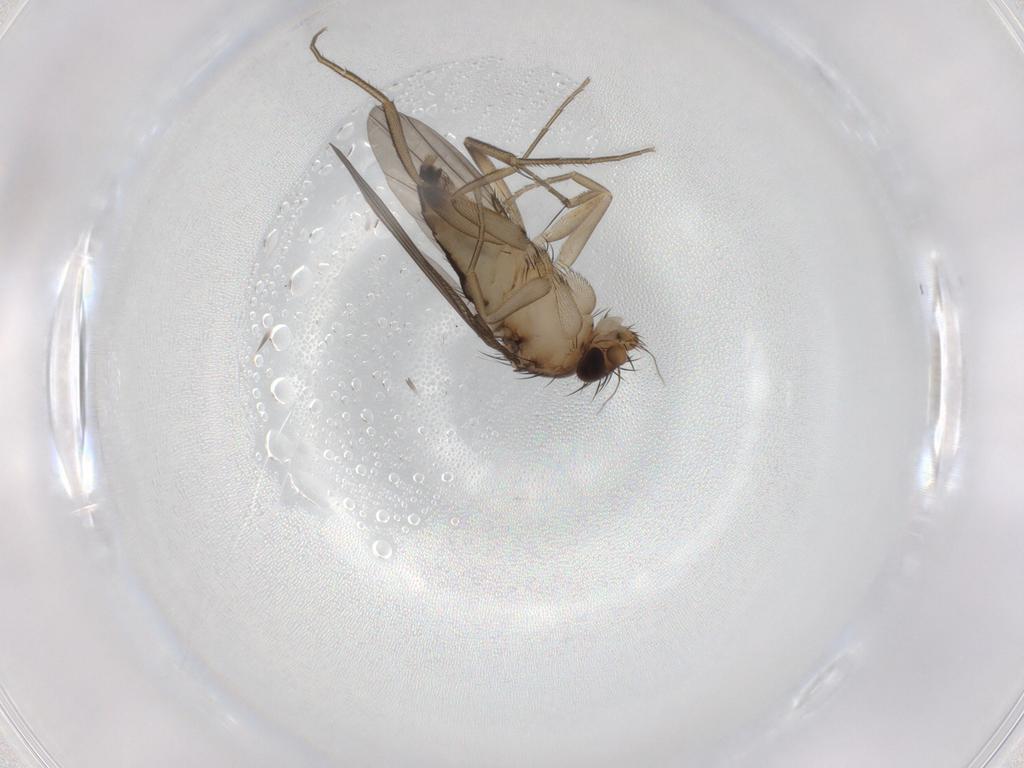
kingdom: Animalia
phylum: Arthropoda
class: Insecta
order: Diptera
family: Phoridae
